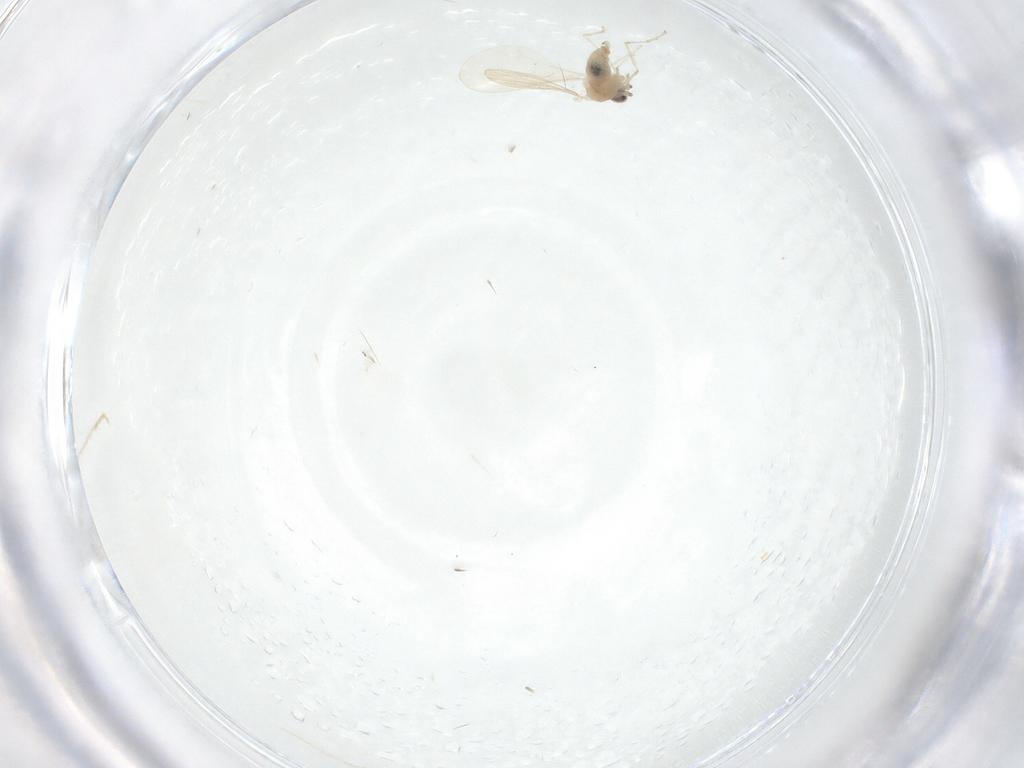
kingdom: Animalia
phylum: Arthropoda
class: Insecta
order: Diptera
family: Cecidomyiidae
